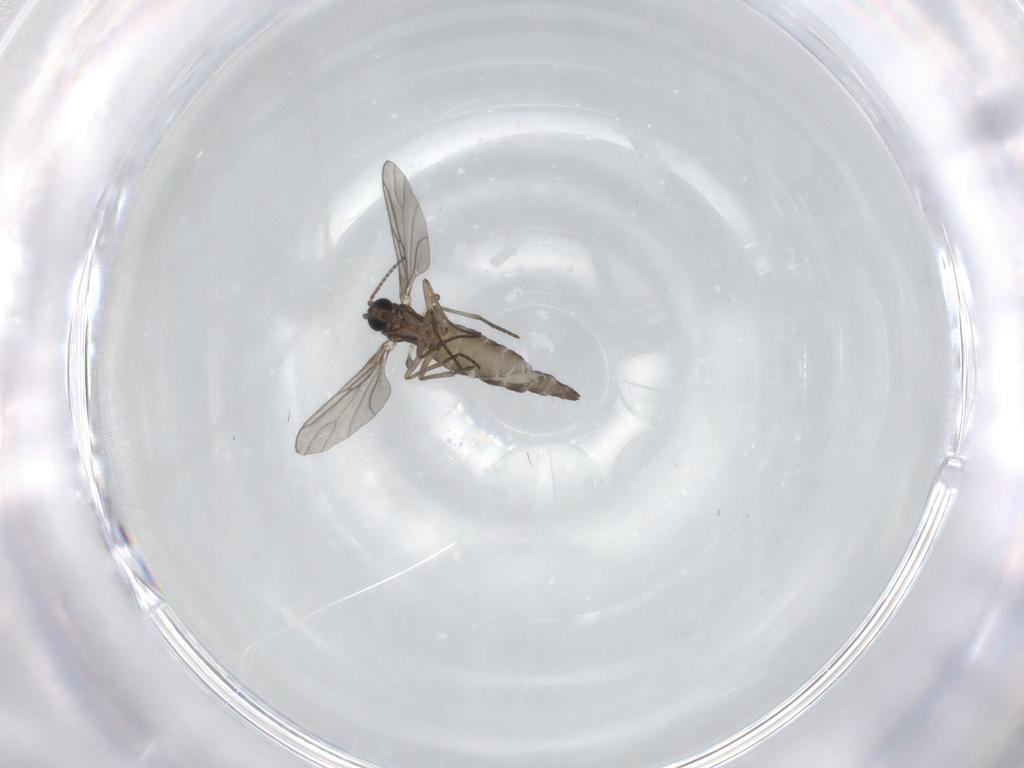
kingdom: Animalia
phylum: Arthropoda
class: Insecta
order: Diptera
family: Sciaridae
